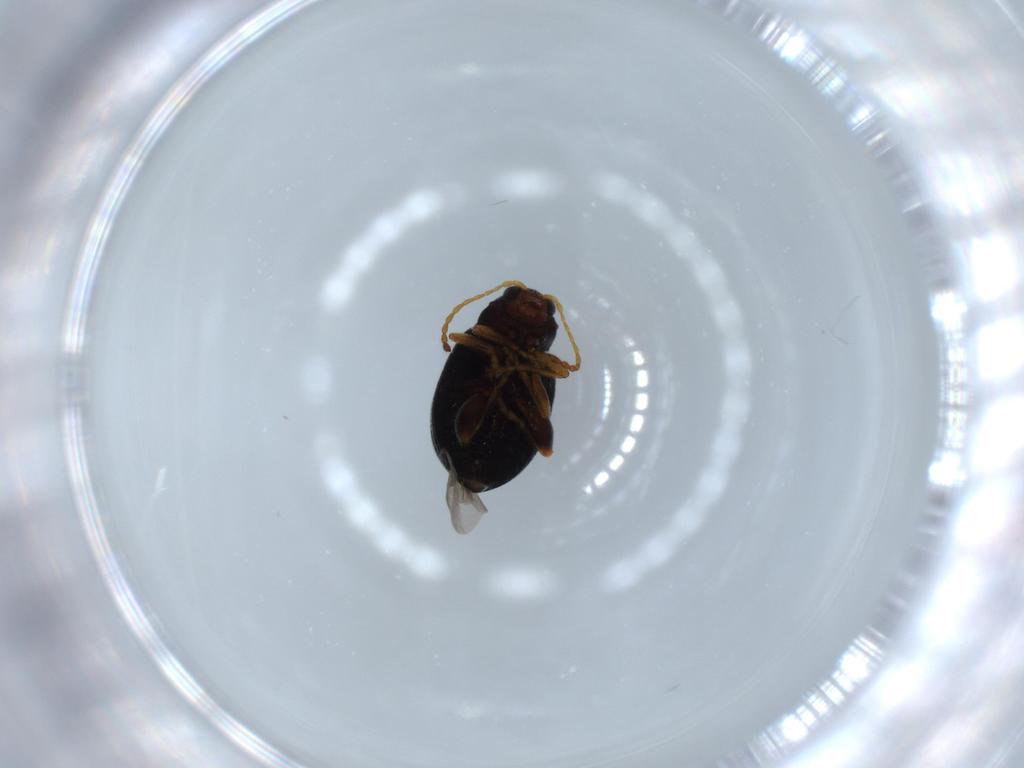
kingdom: Animalia
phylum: Arthropoda
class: Insecta
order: Coleoptera
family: Chrysomelidae
